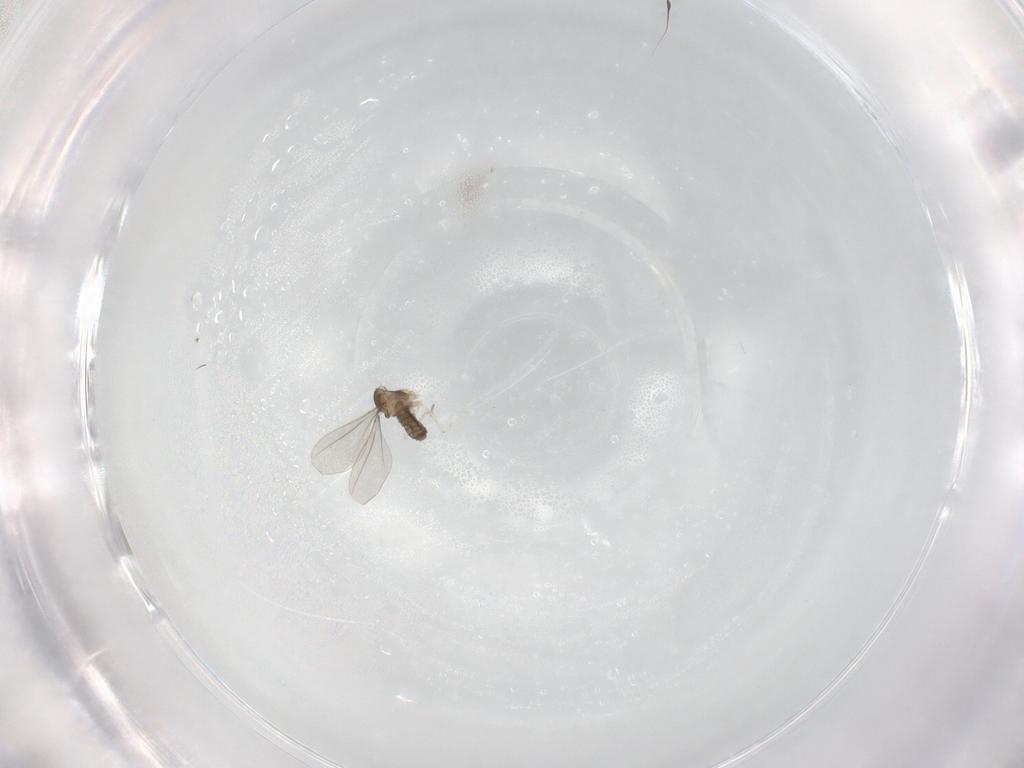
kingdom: Animalia
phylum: Arthropoda
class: Insecta
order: Diptera
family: Cecidomyiidae
